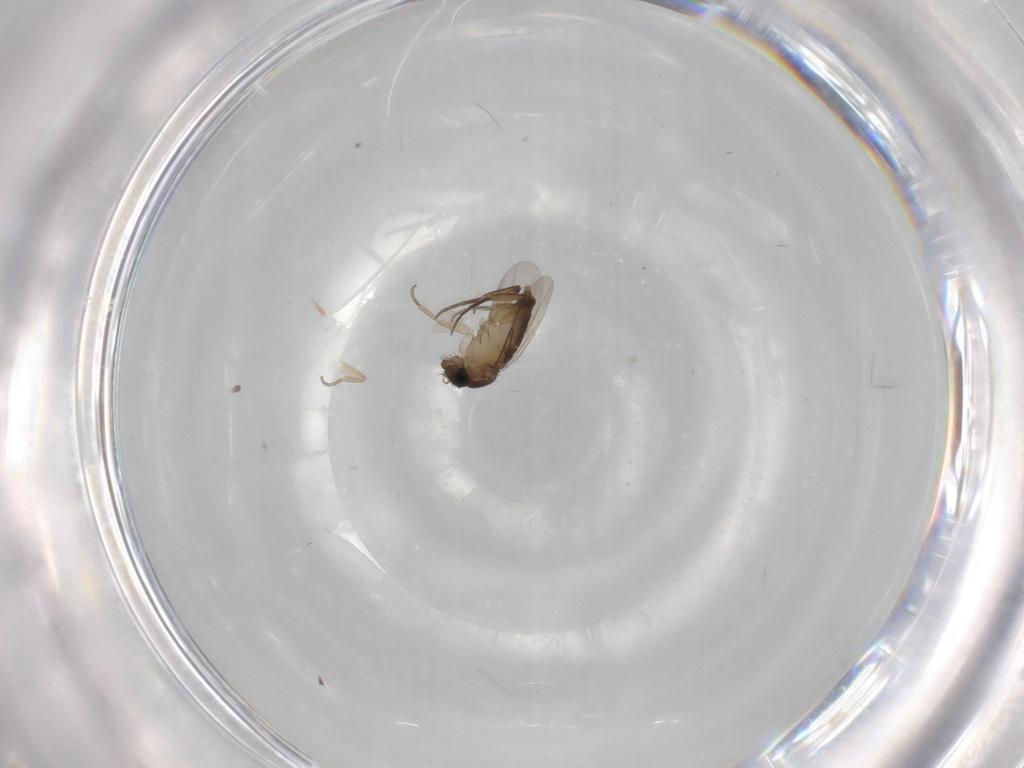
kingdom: Animalia
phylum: Arthropoda
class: Insecta
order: Diptera
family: Phoridae
